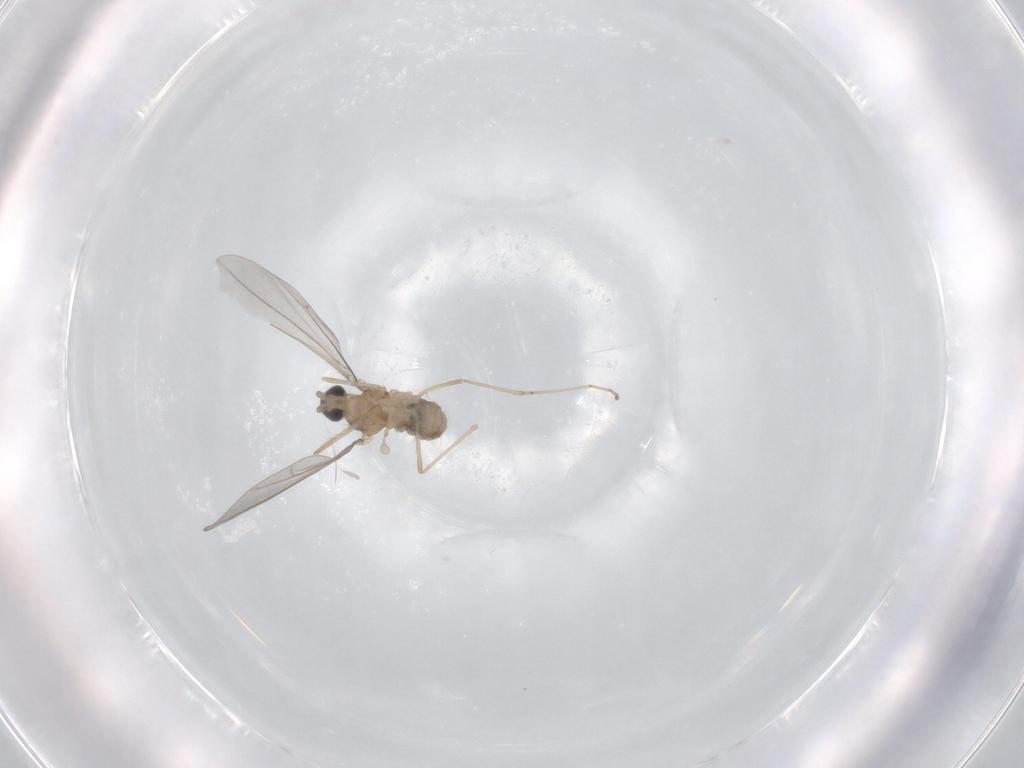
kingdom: Animalia
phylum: Arthropoda
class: Insecta
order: Diptera
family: Cecidomyiidae
